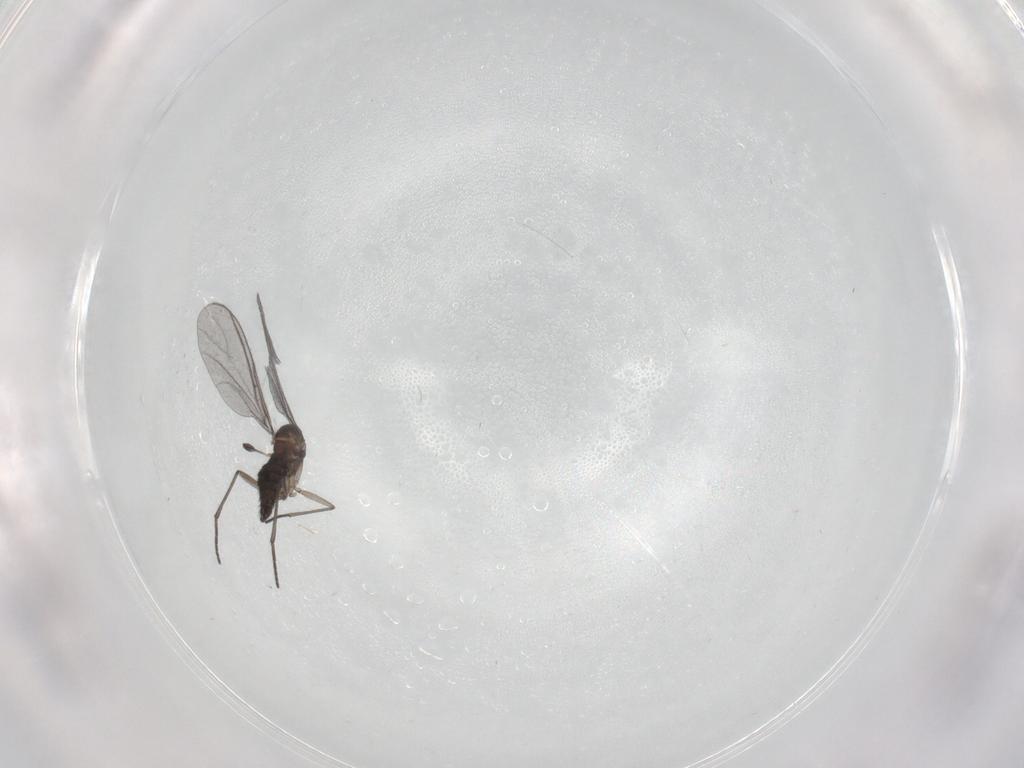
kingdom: Animalia
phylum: Arthropoda
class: Insecta
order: Diptera
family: Sciaridae
